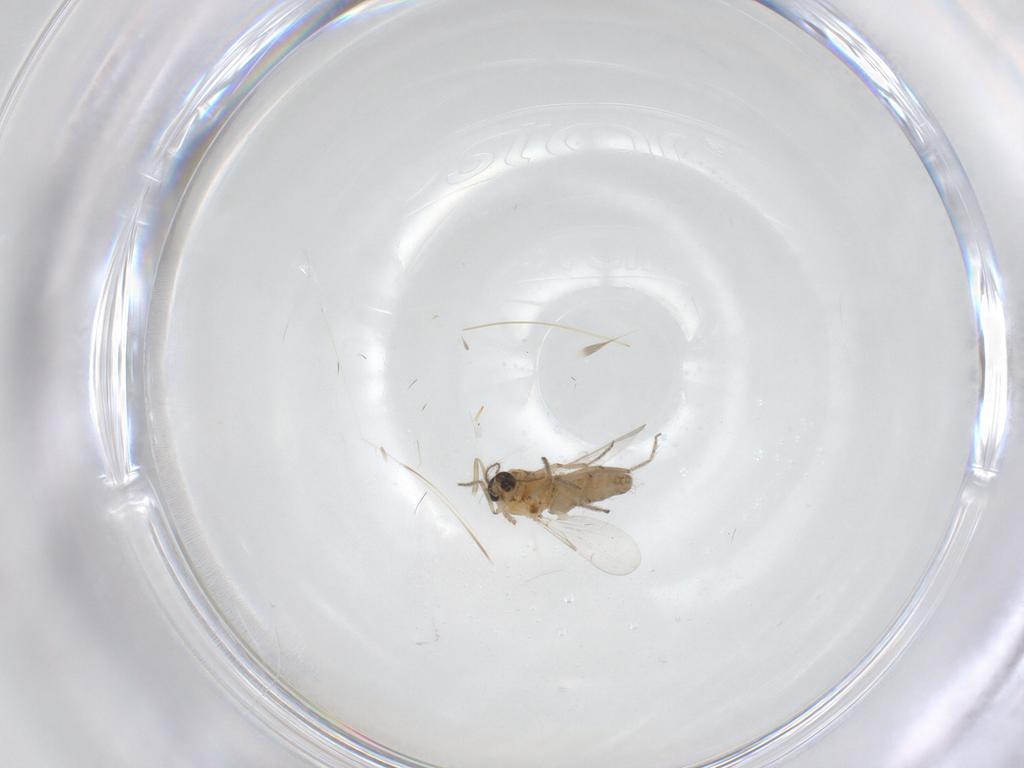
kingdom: Animalia
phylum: Arthropoda
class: Insecta
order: Diptera
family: Ceratopogonidae
